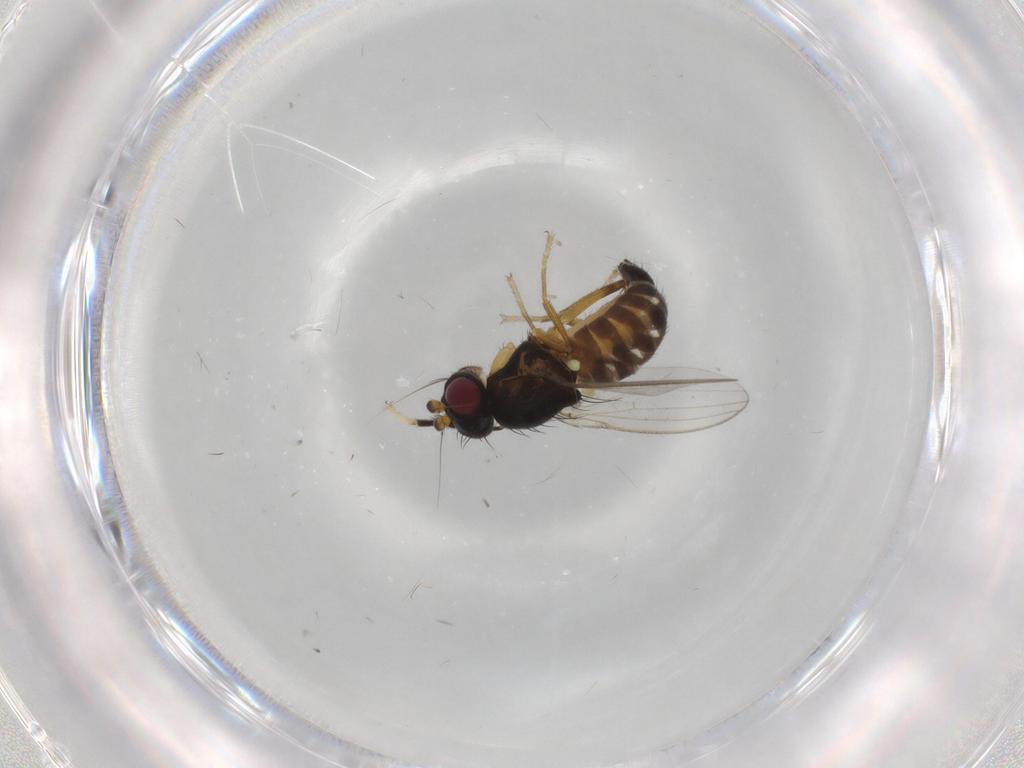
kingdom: Animalia
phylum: Arthropoda
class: Insecta
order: Diptera
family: Cypselosomatidae
